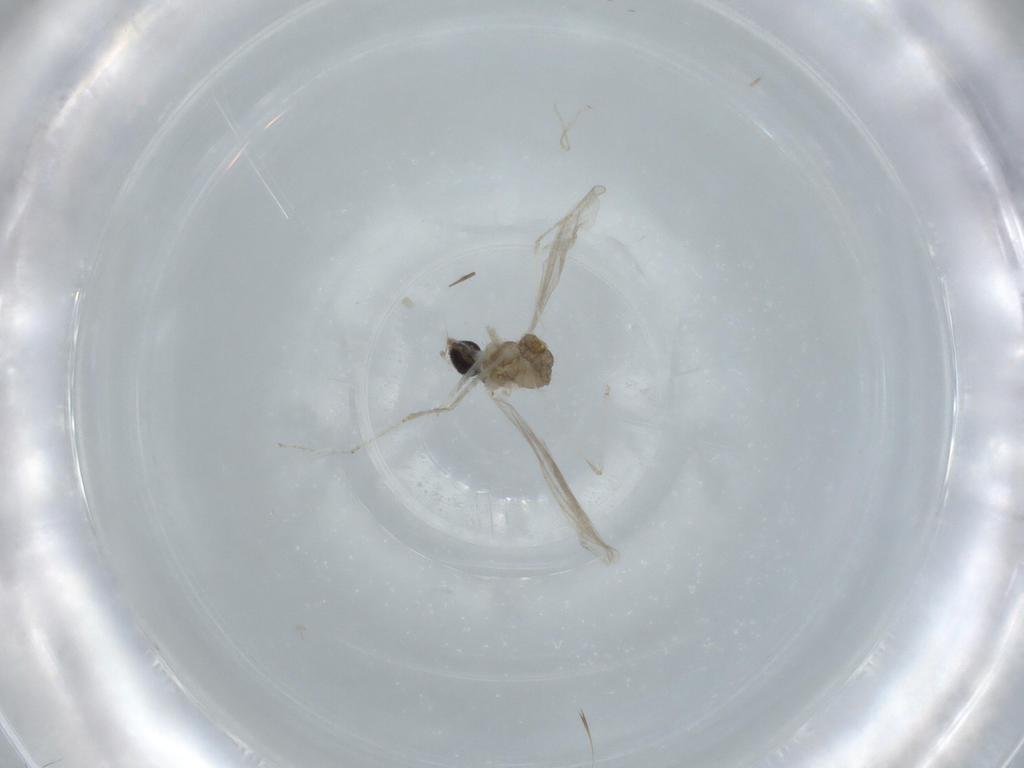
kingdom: Animalia
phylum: Arthropoda
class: Insecta
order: Diptera
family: Cecidomyiidae
